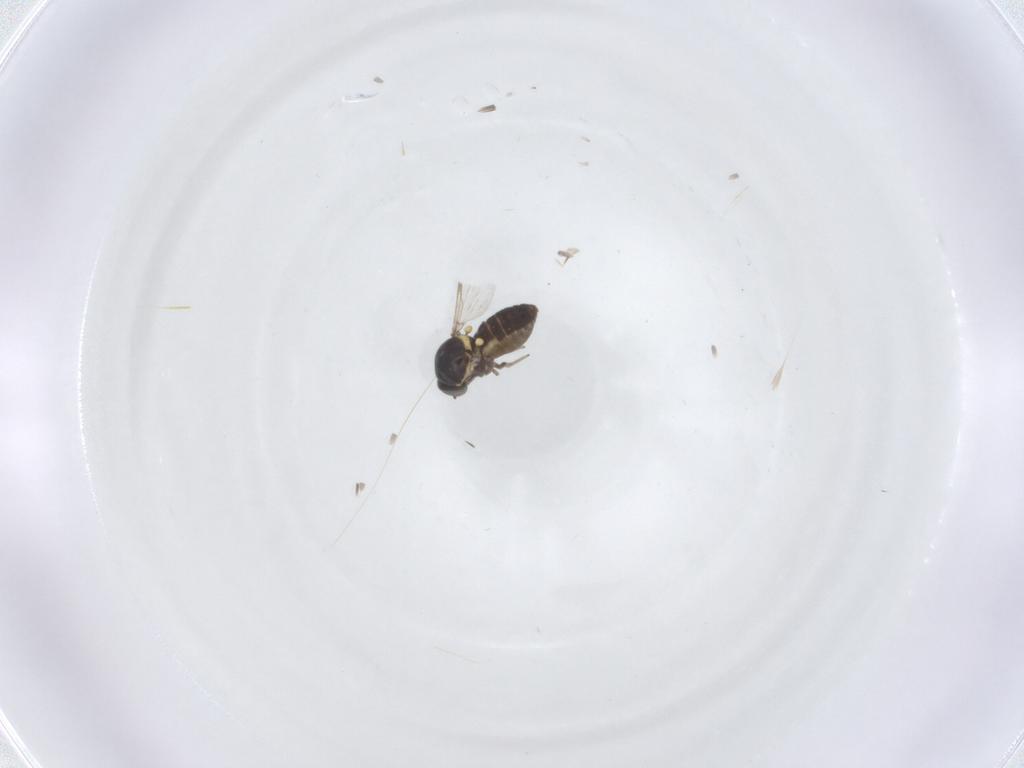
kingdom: Animalia
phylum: Arthropoda
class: Insecta
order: Diptera
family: Ceratopogonidae
